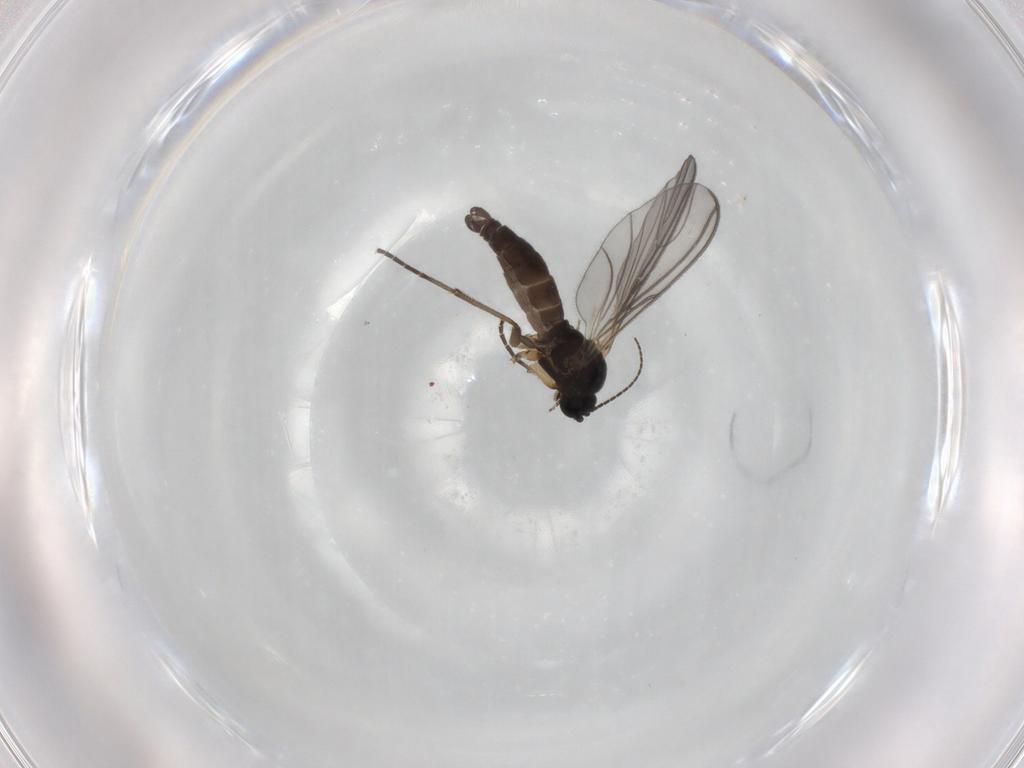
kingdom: Animalia
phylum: Arthropoda
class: Insecta
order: Diptera
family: Sciaridae
